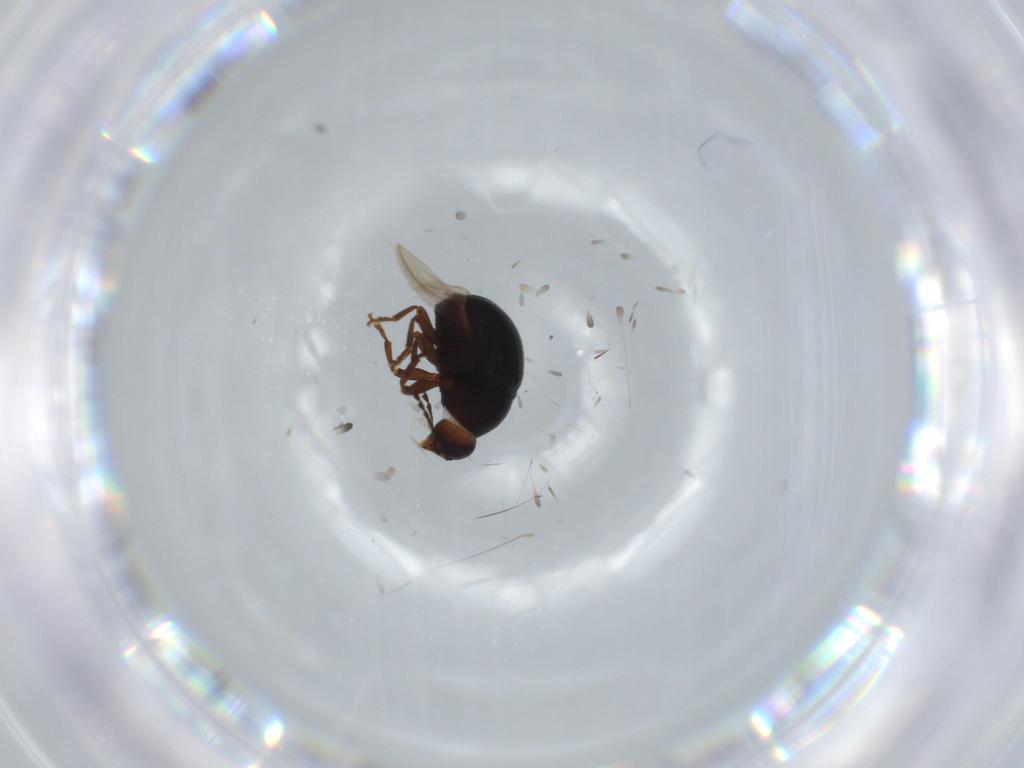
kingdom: Animalia
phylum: Arthropoda
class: Insecta
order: Coleoptera
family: Anthribidae
